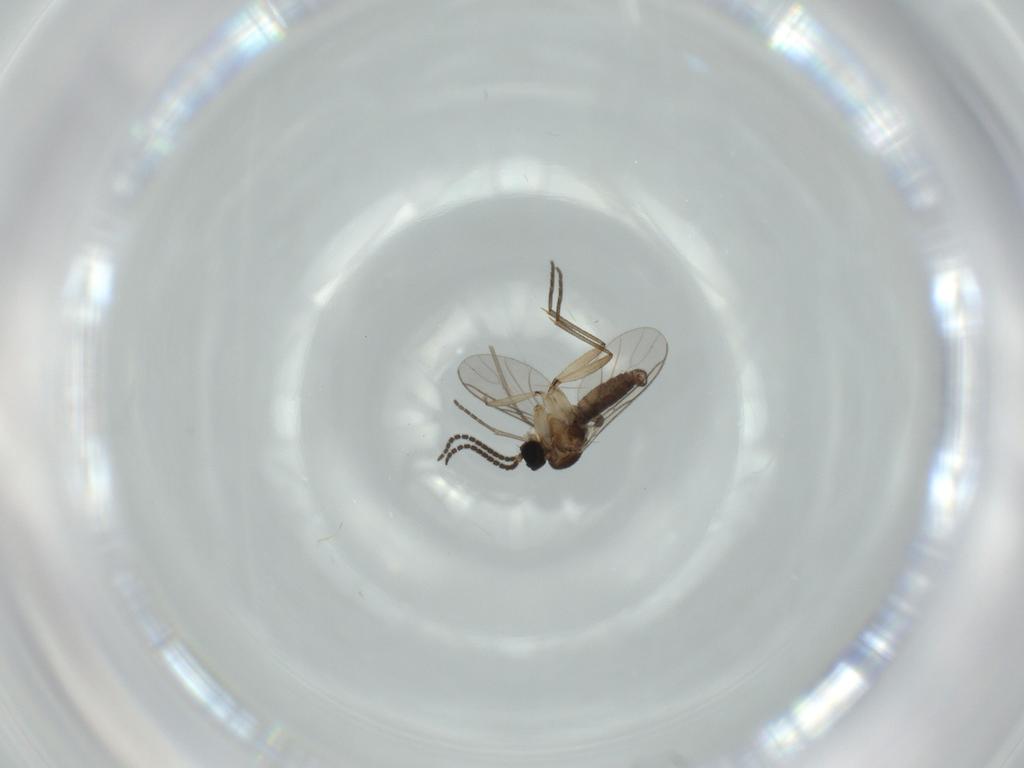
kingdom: Animalia
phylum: Arthropoda
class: Insecta
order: Diptera
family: Sciaridae
